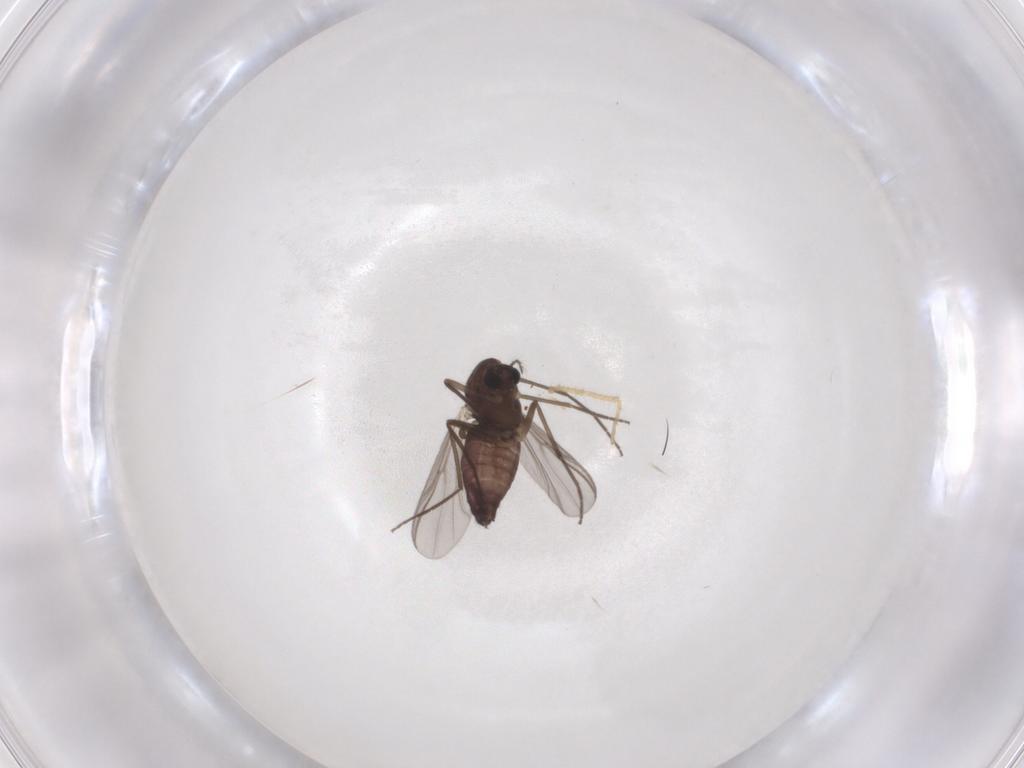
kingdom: Animalia
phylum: Arthropoda
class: Insecta
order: Diptera
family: Chironomidae
